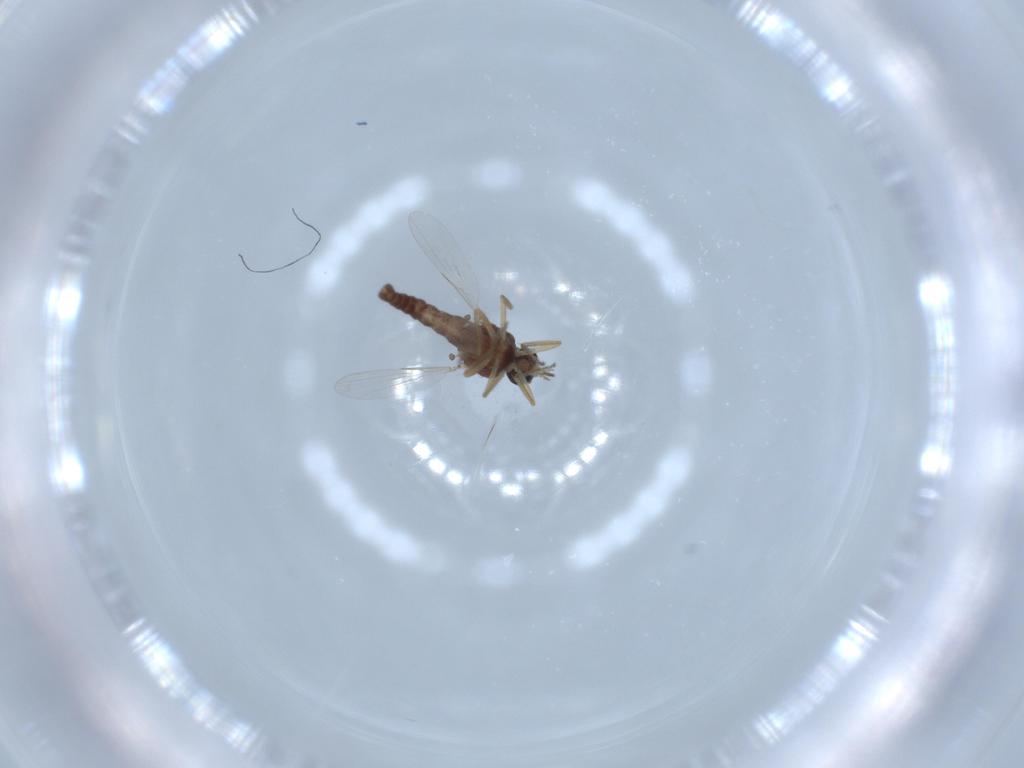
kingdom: Animalia
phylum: Arthropoda
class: Insecta
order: Diptera
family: Ceratopogonidae
